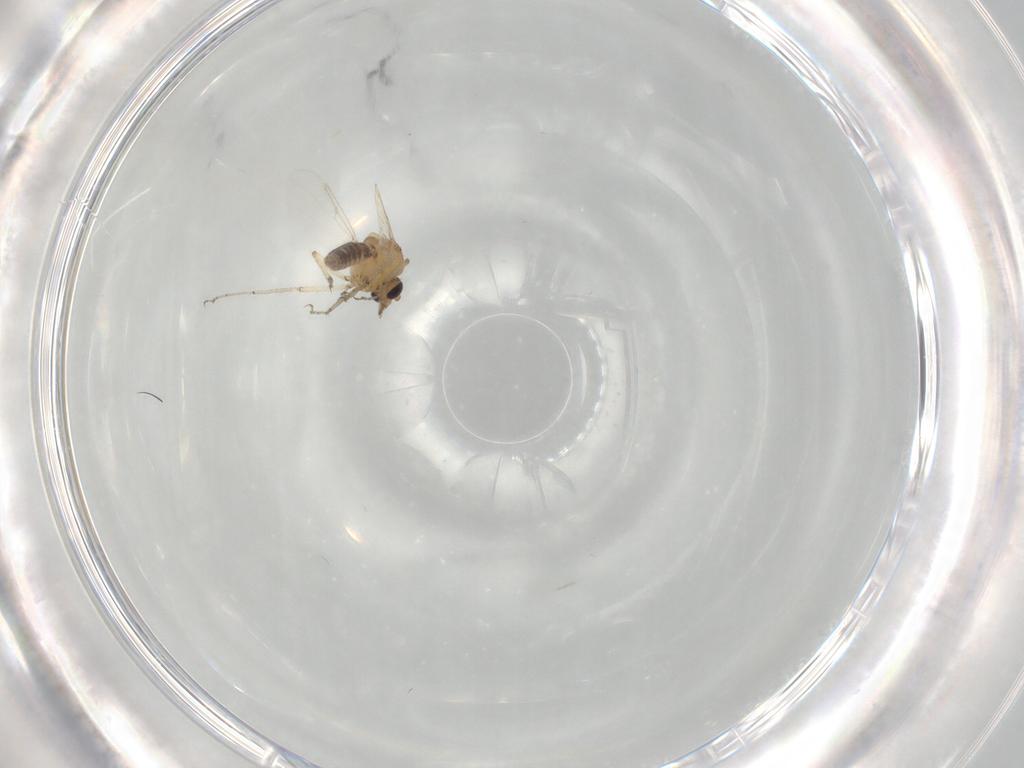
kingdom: Animalia
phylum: Arthropoda
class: Insecta
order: Diptera
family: Ceratopogonidae
